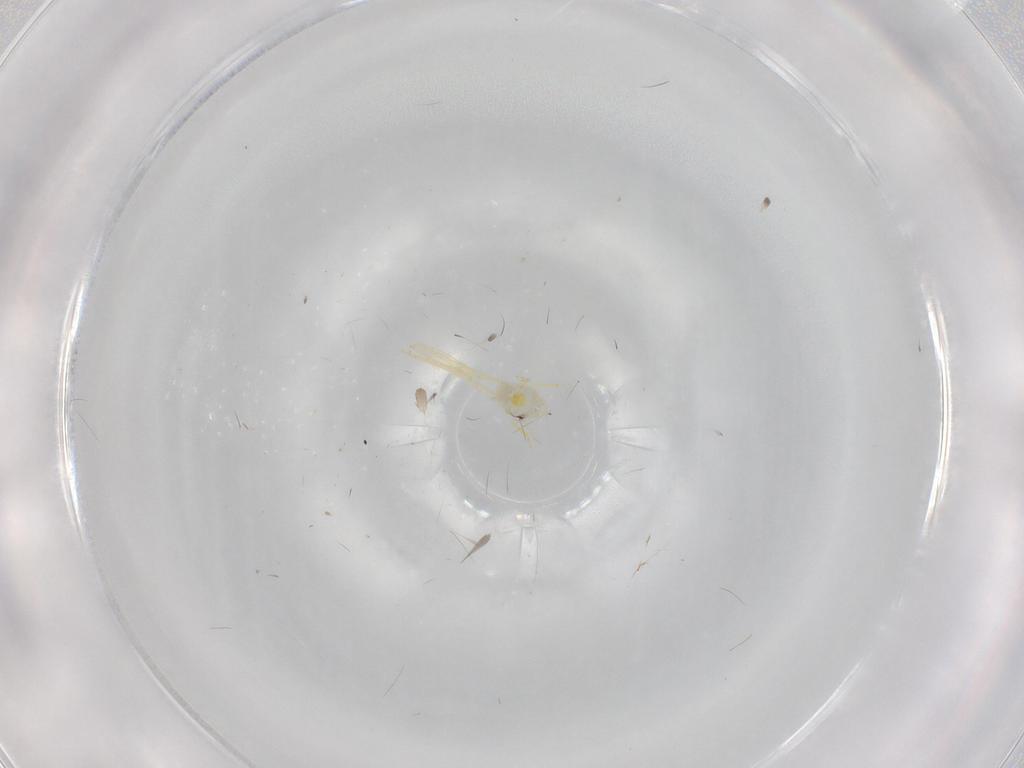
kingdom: Animalia
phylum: Arthropoda
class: Insecta
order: Hemiptera
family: Aleyrodidae
